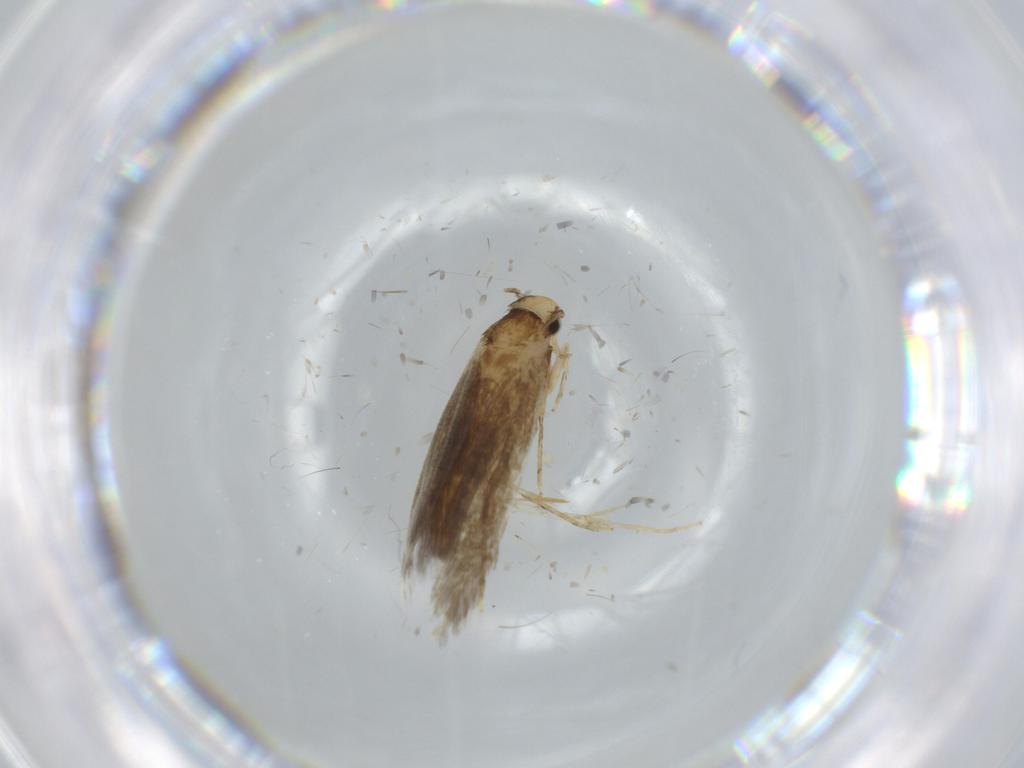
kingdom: Animalia
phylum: Arthropoda
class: Insecta
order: Lepidoptera
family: Tineidae
